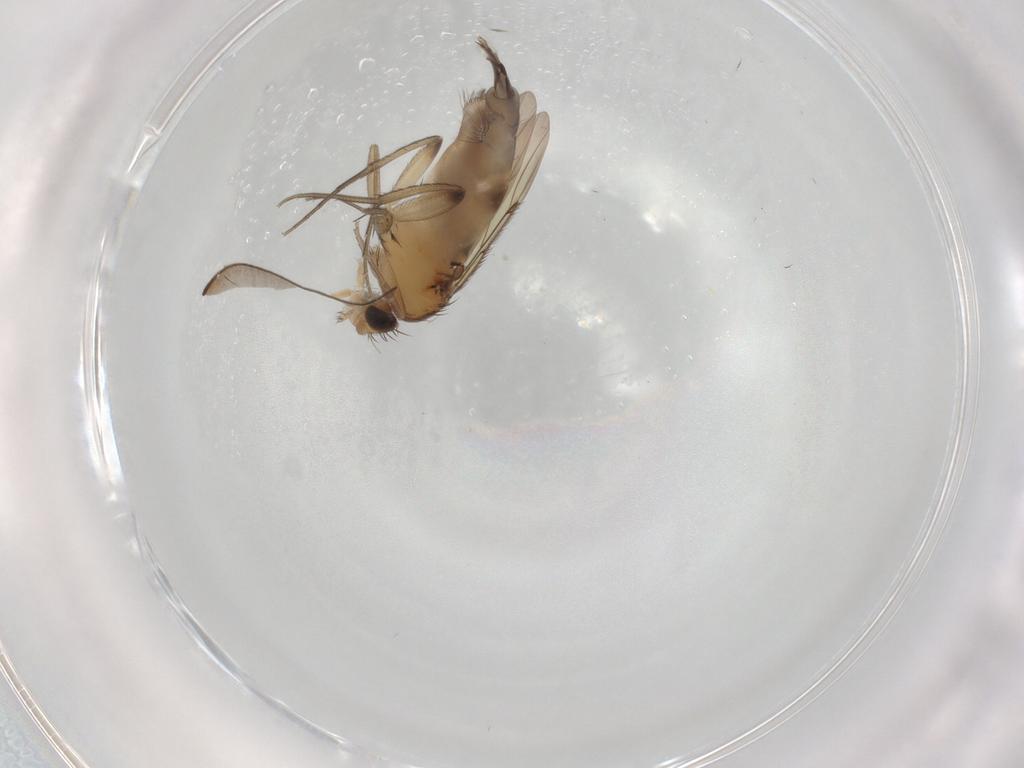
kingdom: Animalia
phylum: Arthropoda
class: Insecta
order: Diptera
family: Phoridae
